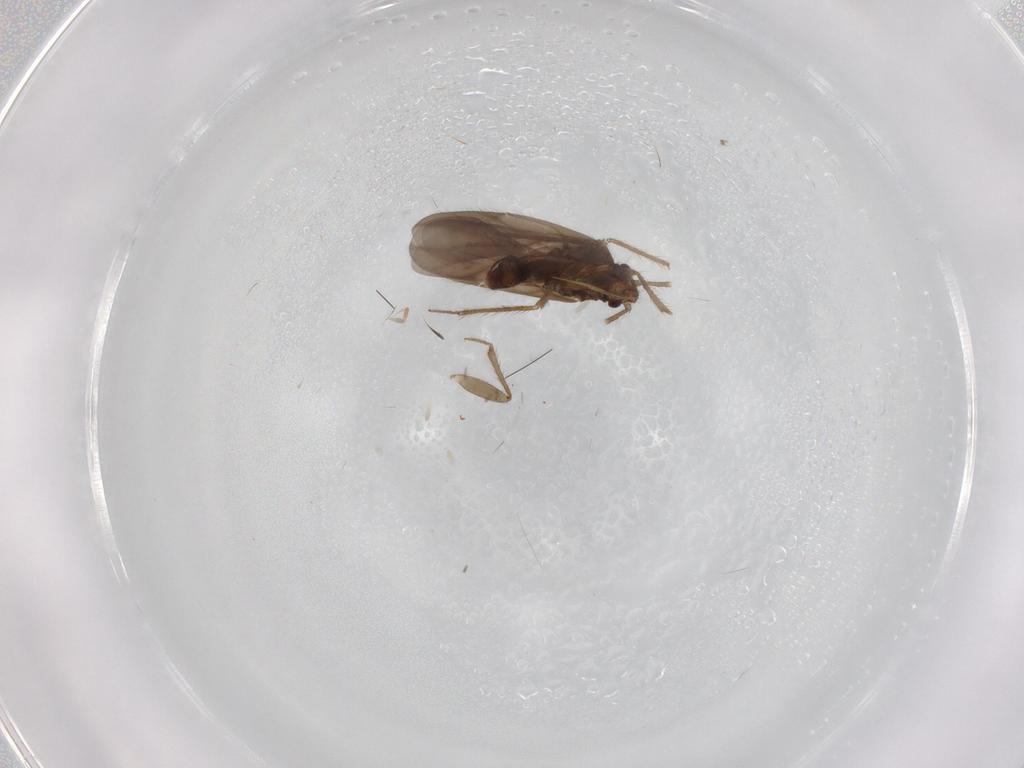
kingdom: Animalia
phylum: Arthropoda
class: Insecta
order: Hemiptera
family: Ceratocombidae
